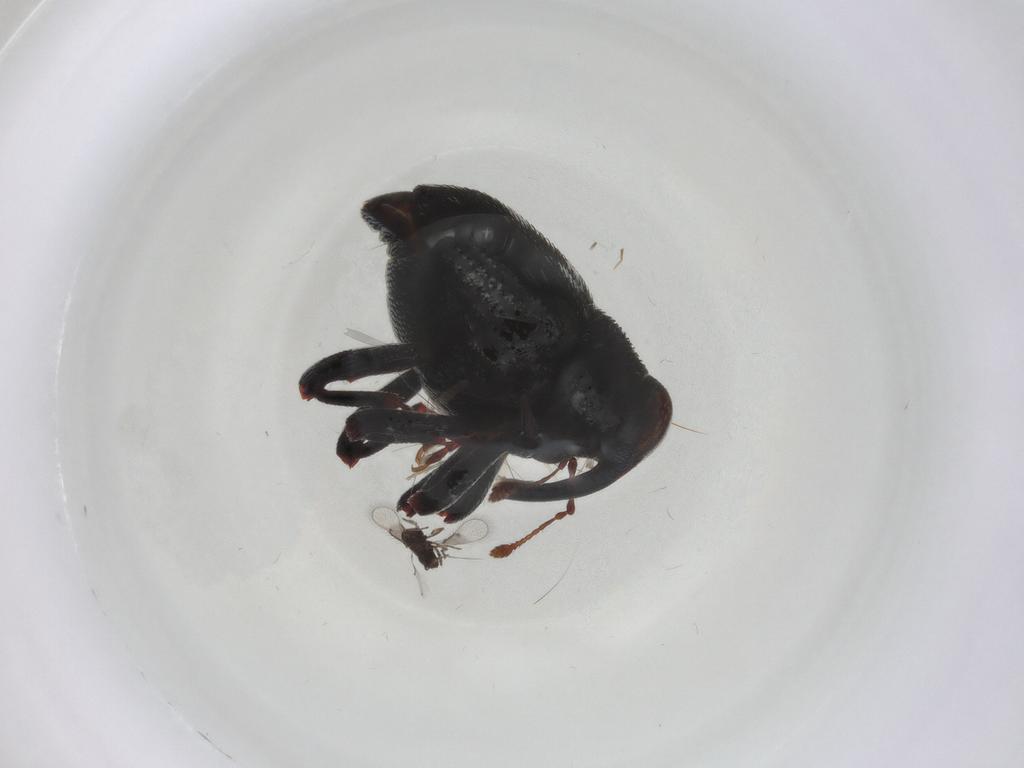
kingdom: Animalia
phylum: Arthropoda
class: Insecta
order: Coleoptera
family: Curculionidae
